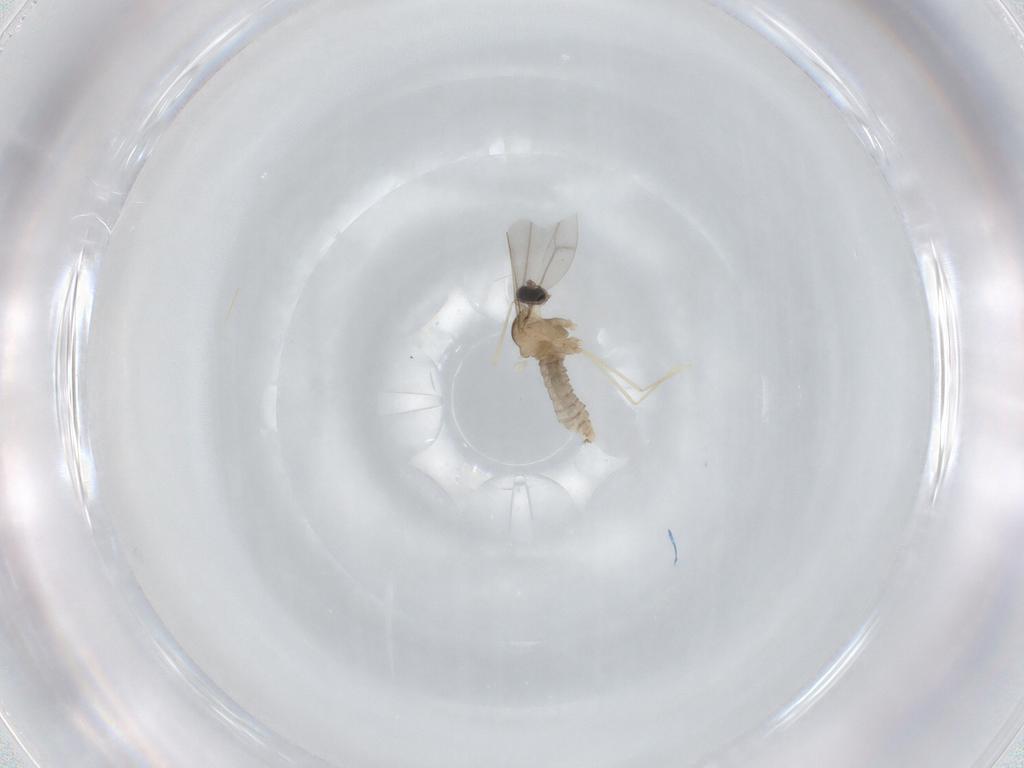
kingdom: Animalia
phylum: Arthropoda
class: Insecta
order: Diptera
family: Cecidomyiidae
